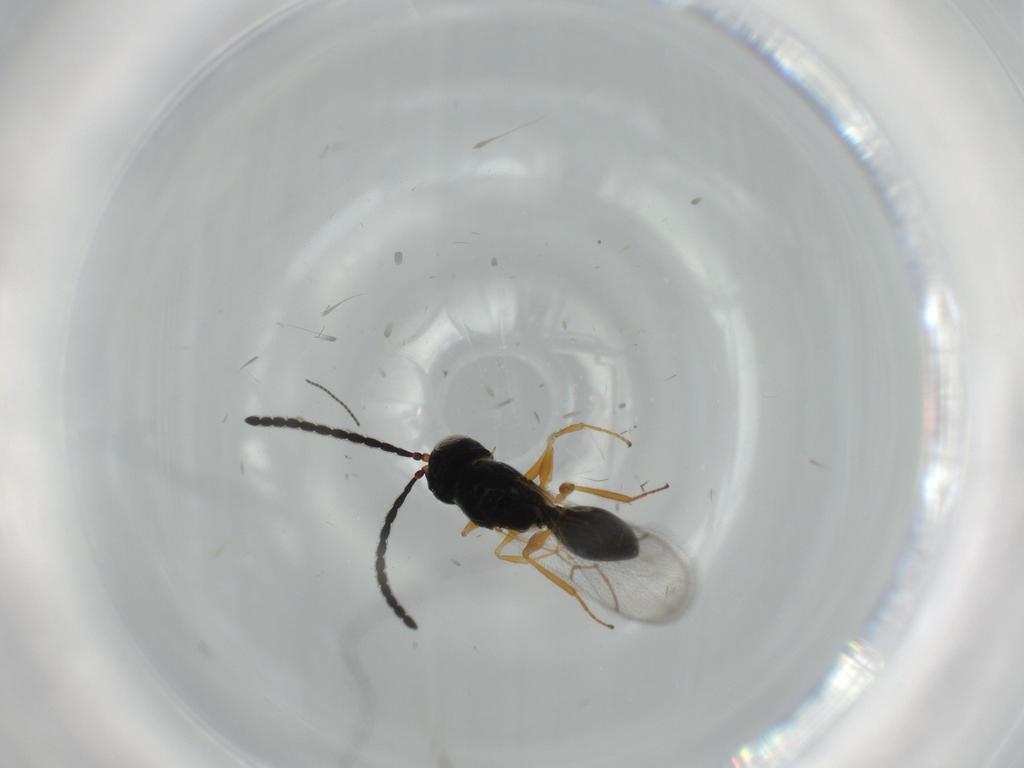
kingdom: Animalia
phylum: Arthropoda
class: Insecta
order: Hymenoptera
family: Figitidae
